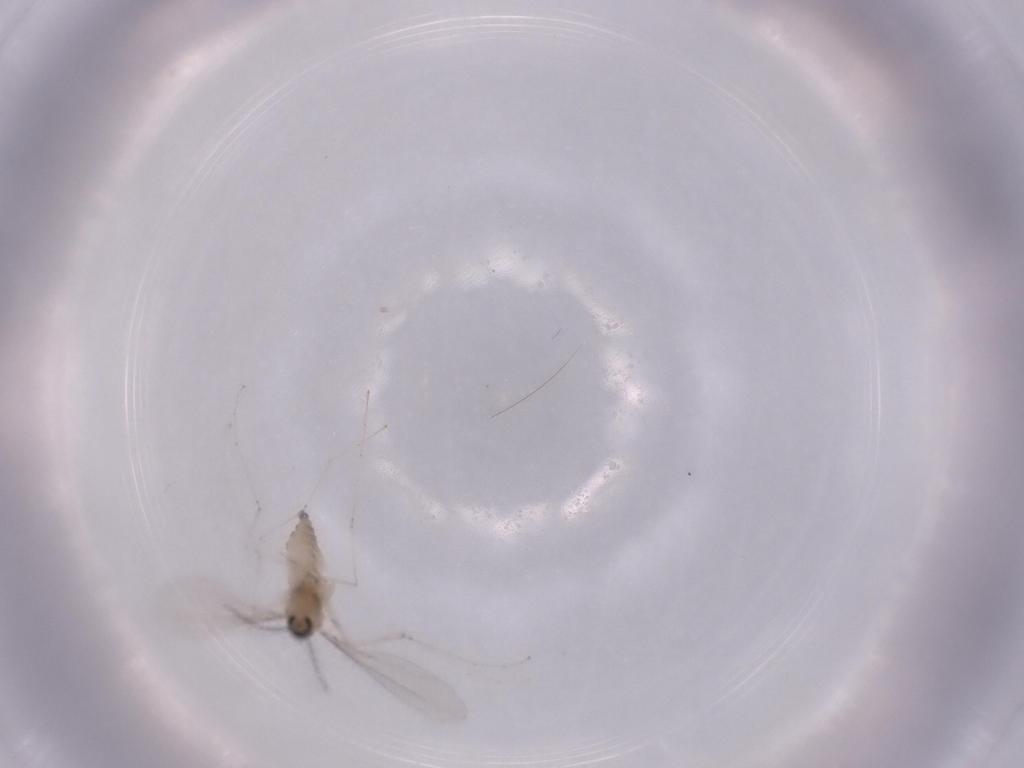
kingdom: Animalia
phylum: Arthropoda
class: Insecta
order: Diptera
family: Cecidomyiidae
